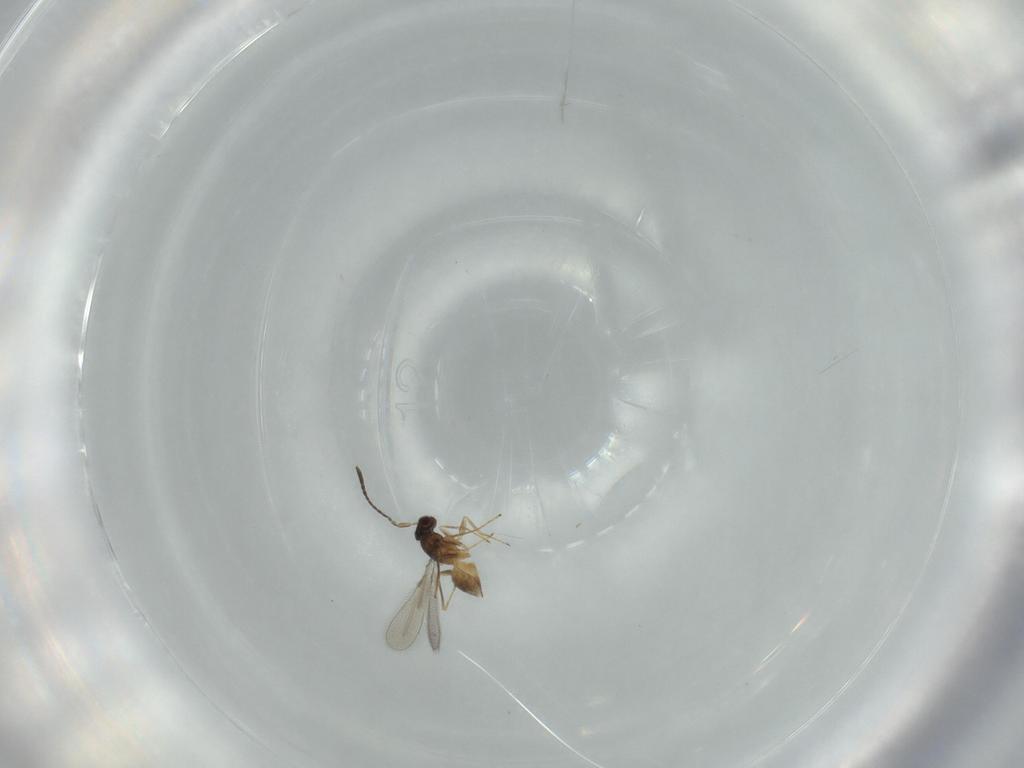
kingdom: Animalia
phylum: Arthropoda
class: Insecta
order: Hymenoptera
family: Mymaridae
